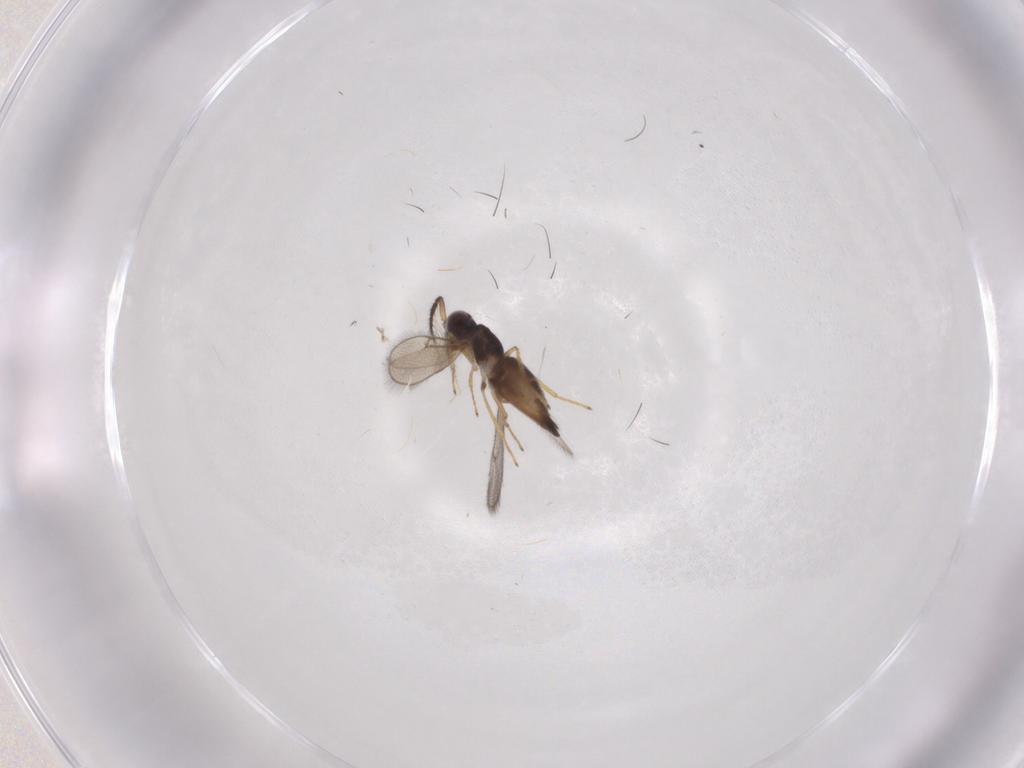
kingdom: Animalia
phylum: Arthropoda
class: Insecta
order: Hymenoptera
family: Eulophidae
